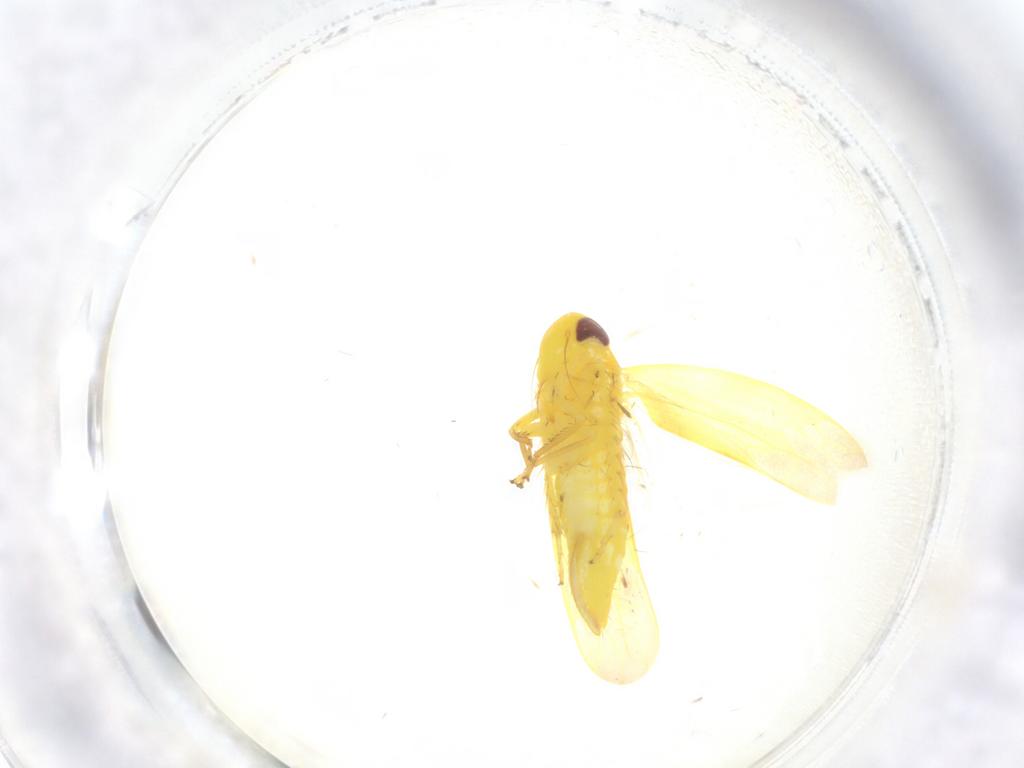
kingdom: Animalia
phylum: Arthropoda
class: Insecta
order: Hemiptera
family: Cicadellidae
